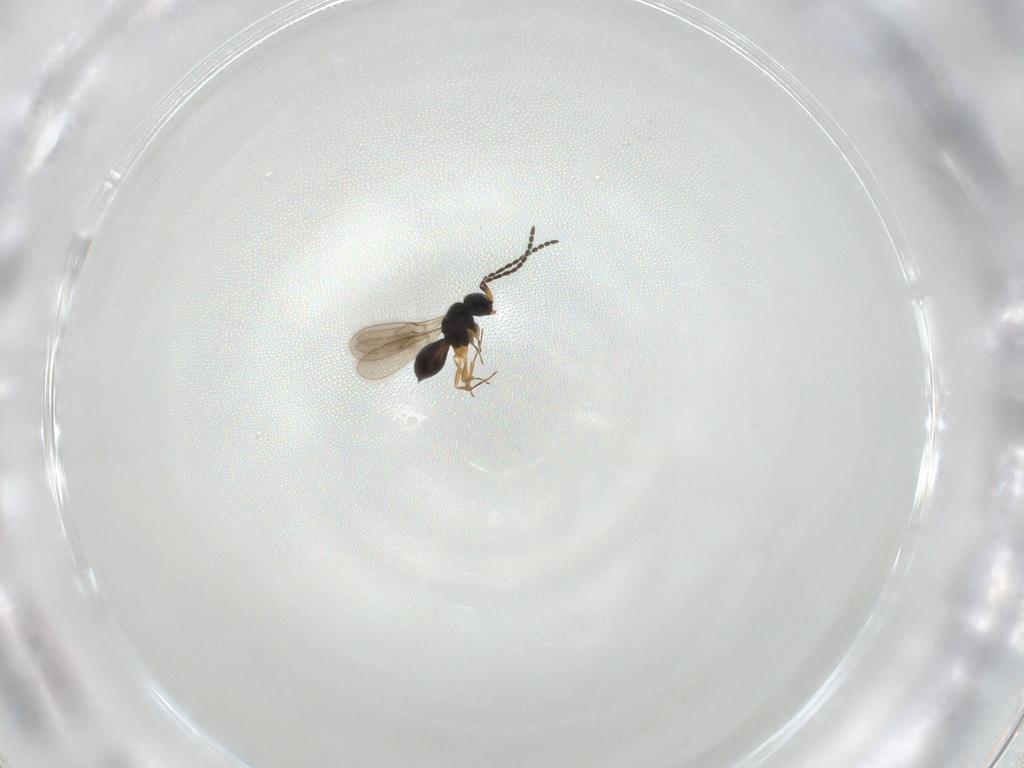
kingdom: Animalia
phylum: Arthropoda
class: Insecta
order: Hymenoptera
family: Scelionidae
